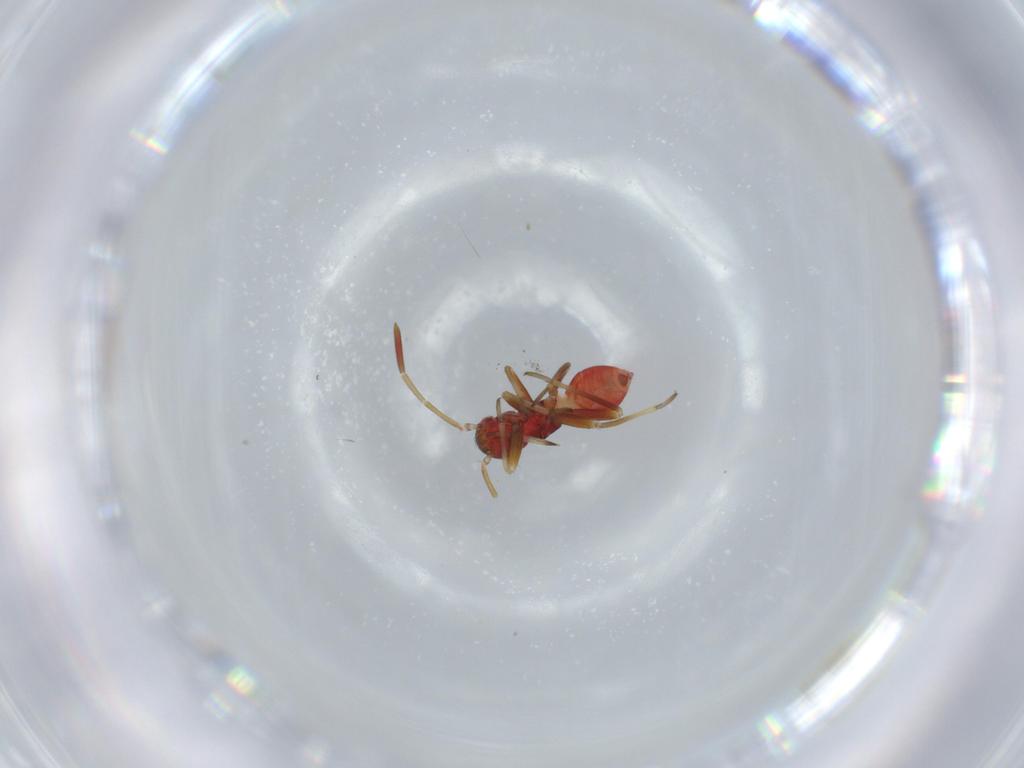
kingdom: Animalia
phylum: Arthropoda
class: Insecta
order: Hemiptera
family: Miridae
